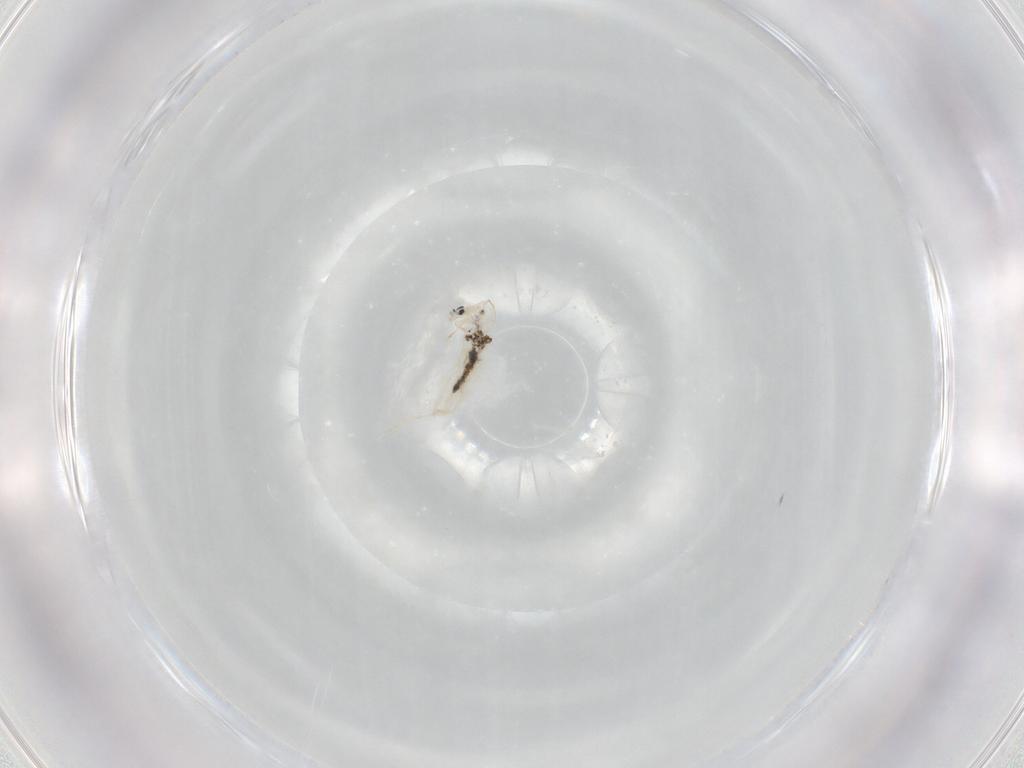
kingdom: Animalia
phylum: Arthropoda
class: Collembola
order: Entomobryomorpha
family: Entomobryidae
